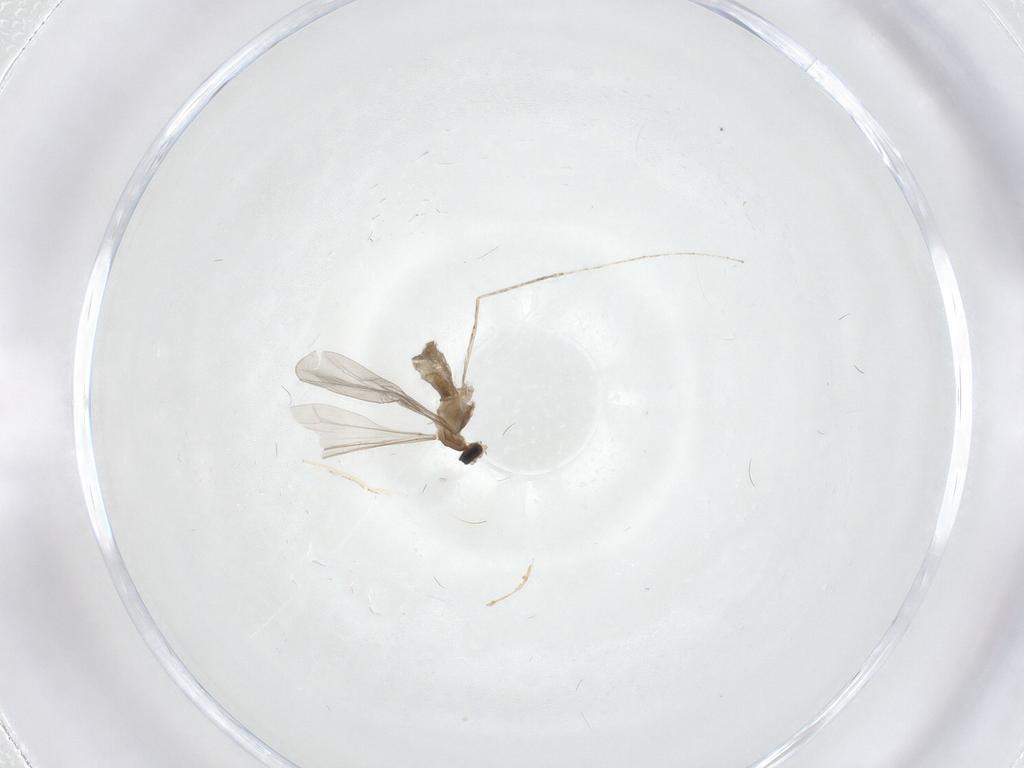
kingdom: Animalia
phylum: Arthropoda
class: Insecta
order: Diptera
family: Cecidomyiidae
